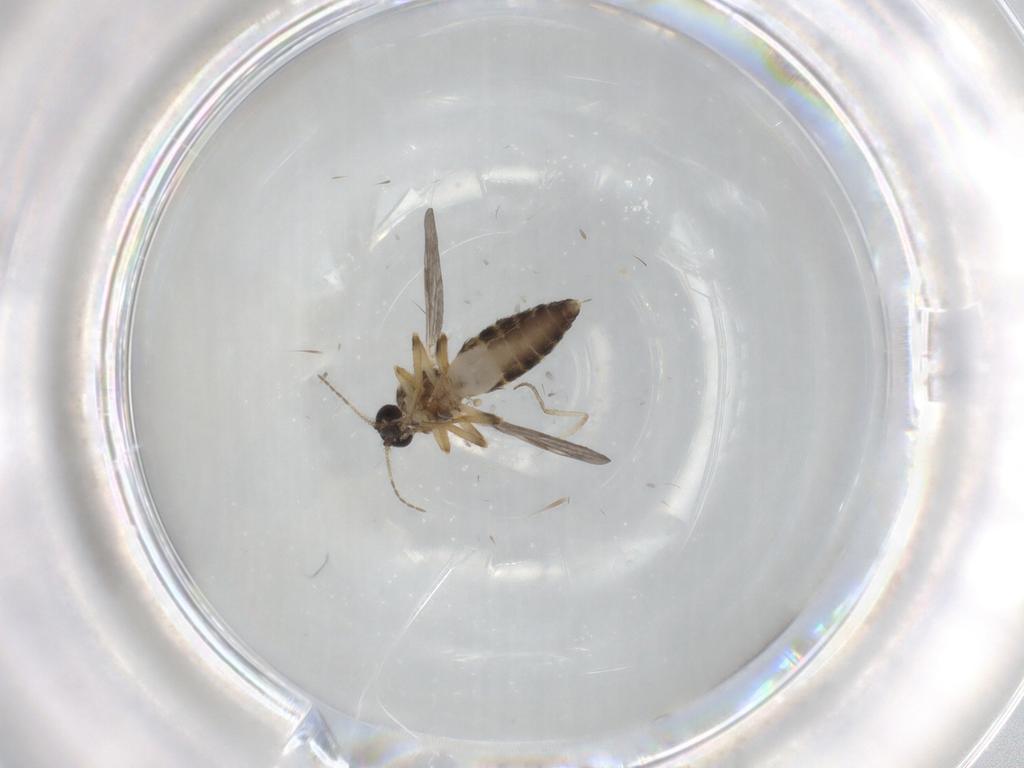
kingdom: Animalia
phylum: Arthropoda
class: Insecta
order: Diptera
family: Ceratopogonidae
